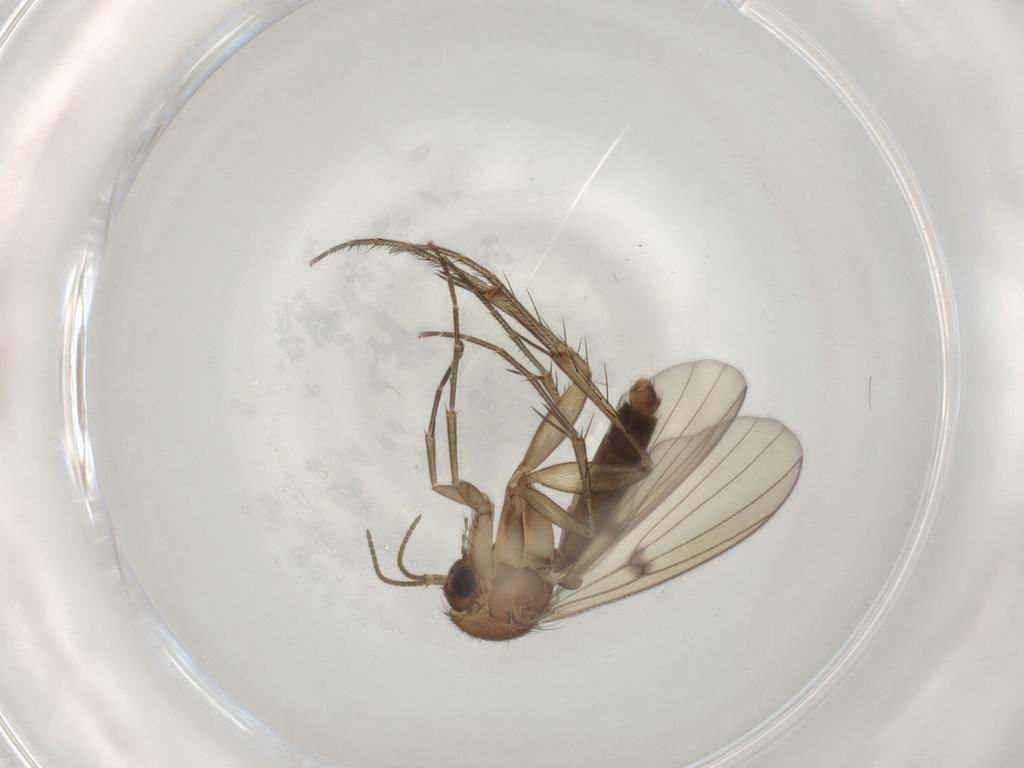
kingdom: Animalia
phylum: Arthropoda
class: Insecta
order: Diptera
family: Mycetophilidae
